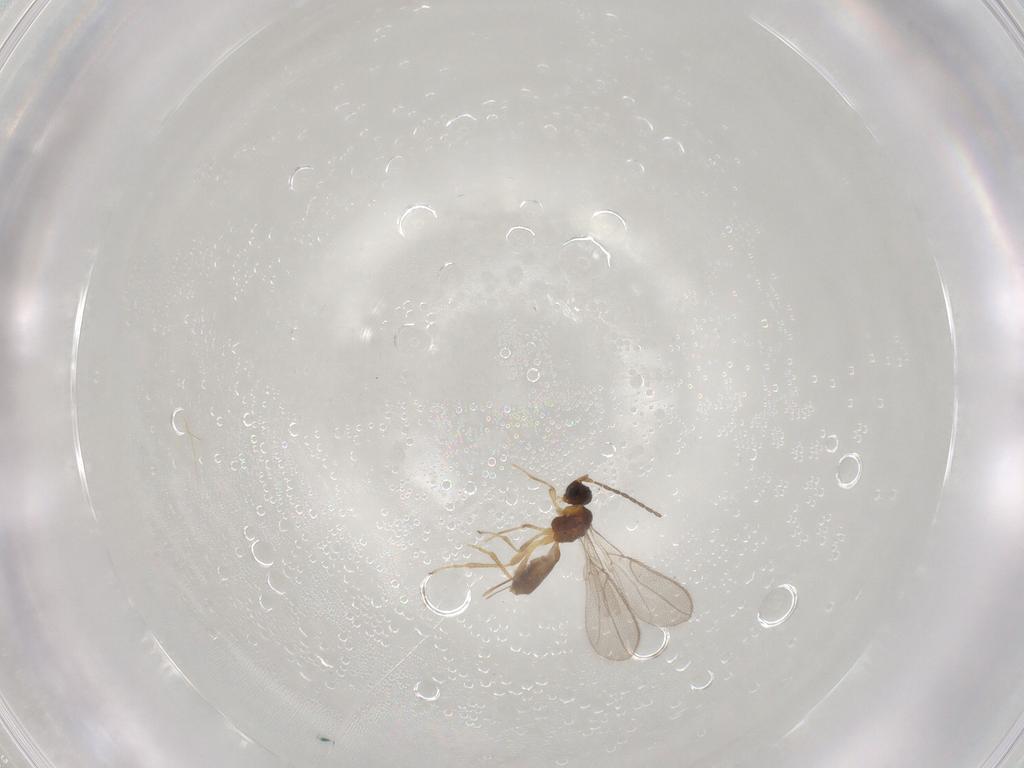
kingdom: Animalia
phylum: Arthropoda
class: Insecta
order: Hymenoptera
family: Braconidae
